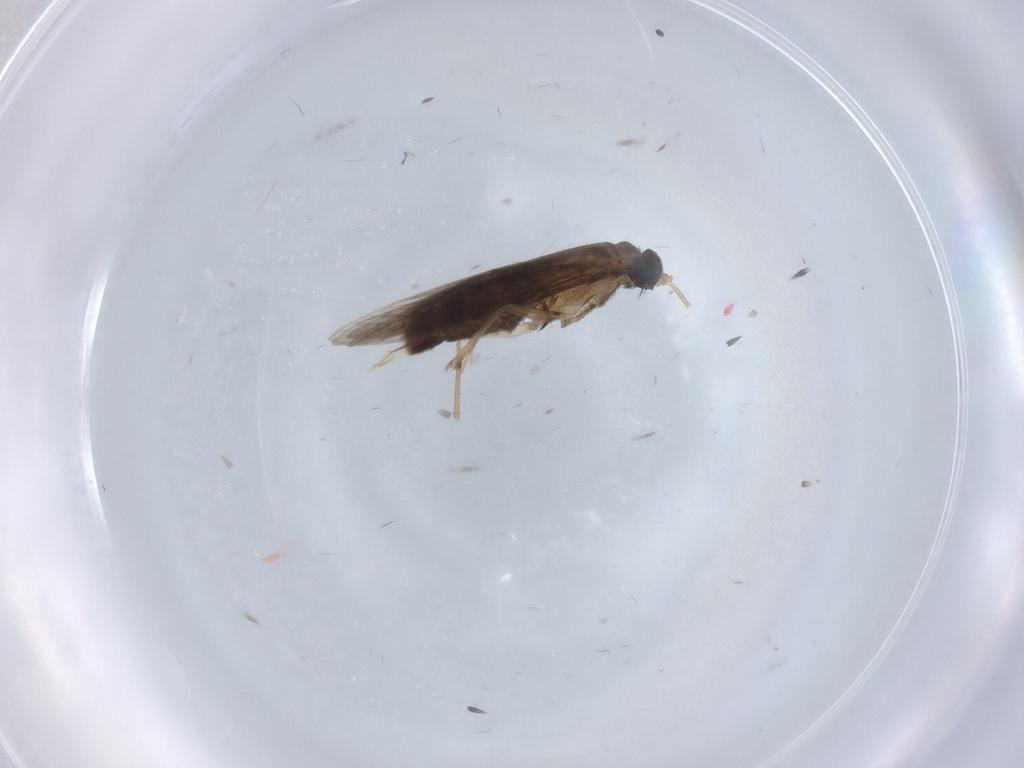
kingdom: Animalia
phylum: Arthropoda
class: Insecta
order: Trichoptera
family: Hydroptilidae
